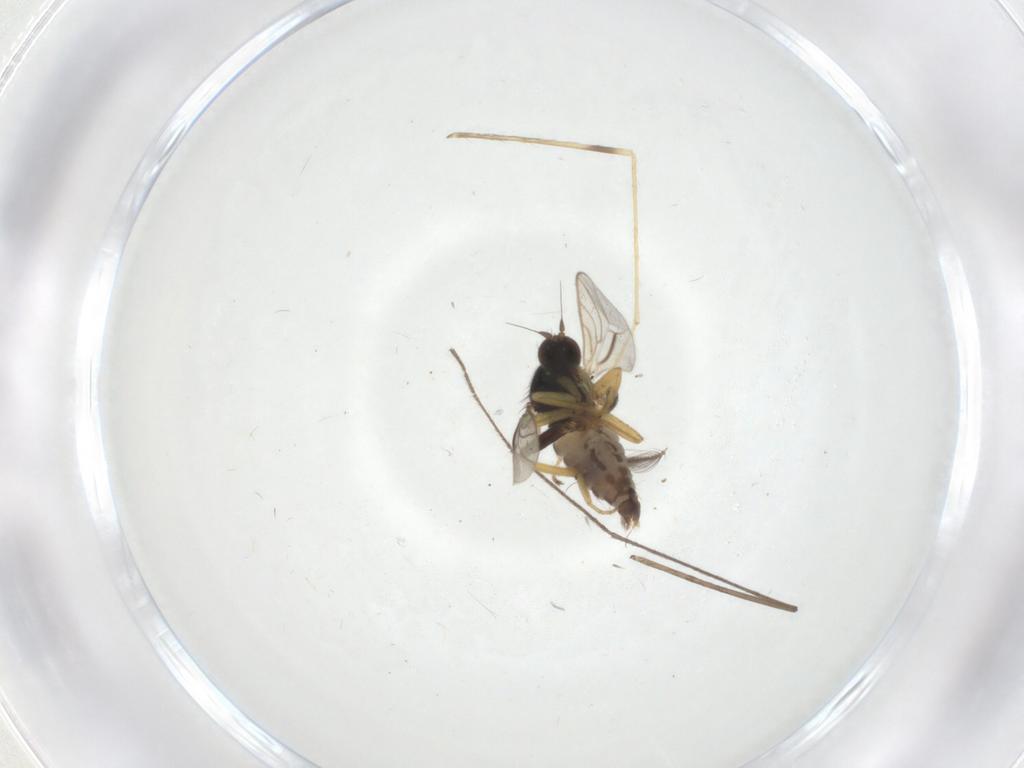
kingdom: Animalia
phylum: Arthropoda
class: Insecta
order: Diptera
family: Hybotidae
